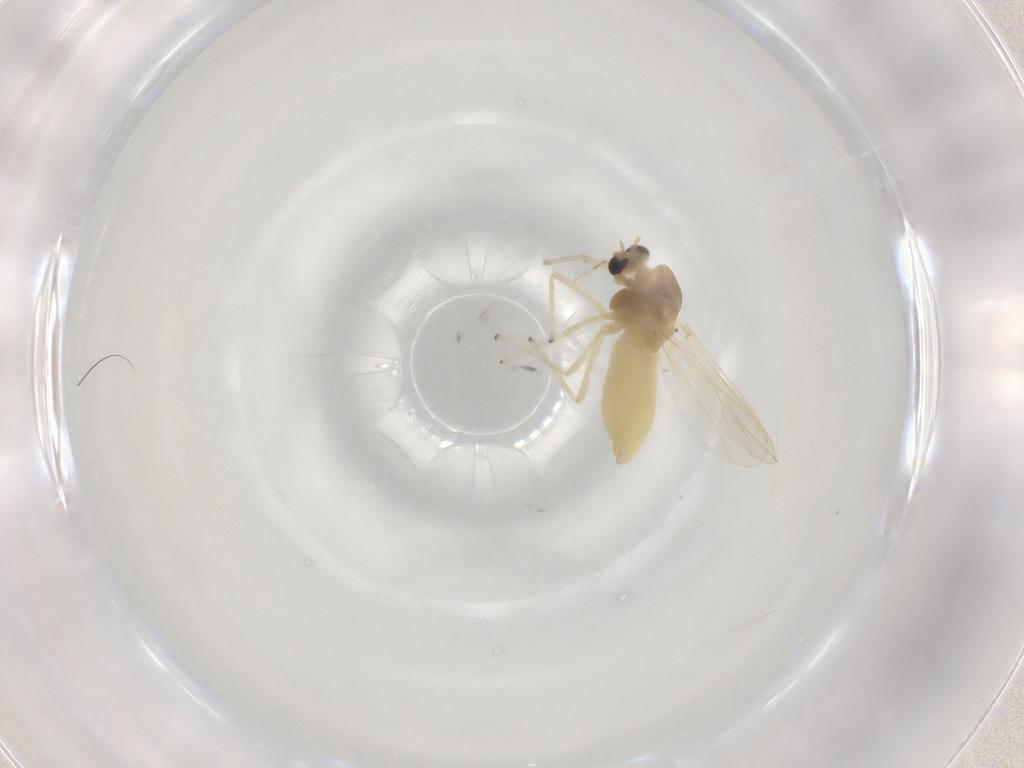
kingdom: Animalia
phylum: Arthropoda
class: Insecta
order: Diptera
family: Chironomidae
